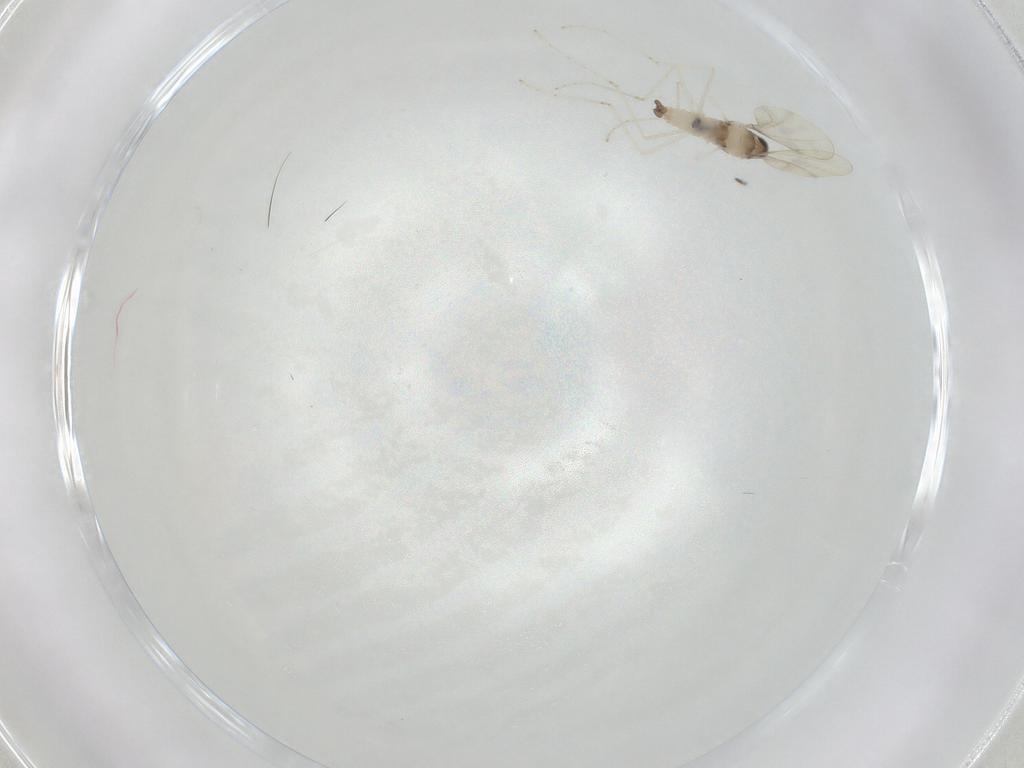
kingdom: Animalia
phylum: Arthropoda
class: Insecta
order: Diptera
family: Cecidomyiidae
